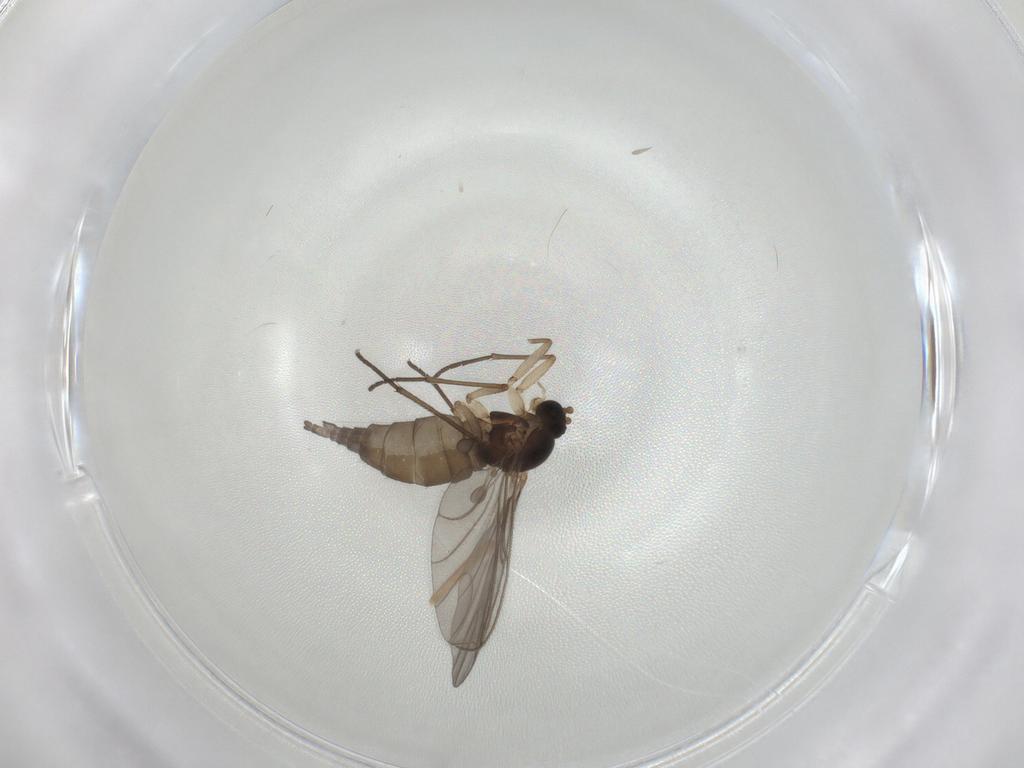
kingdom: Animalia
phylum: Arthropoda
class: Insecta
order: Diptera
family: Sciaridae
